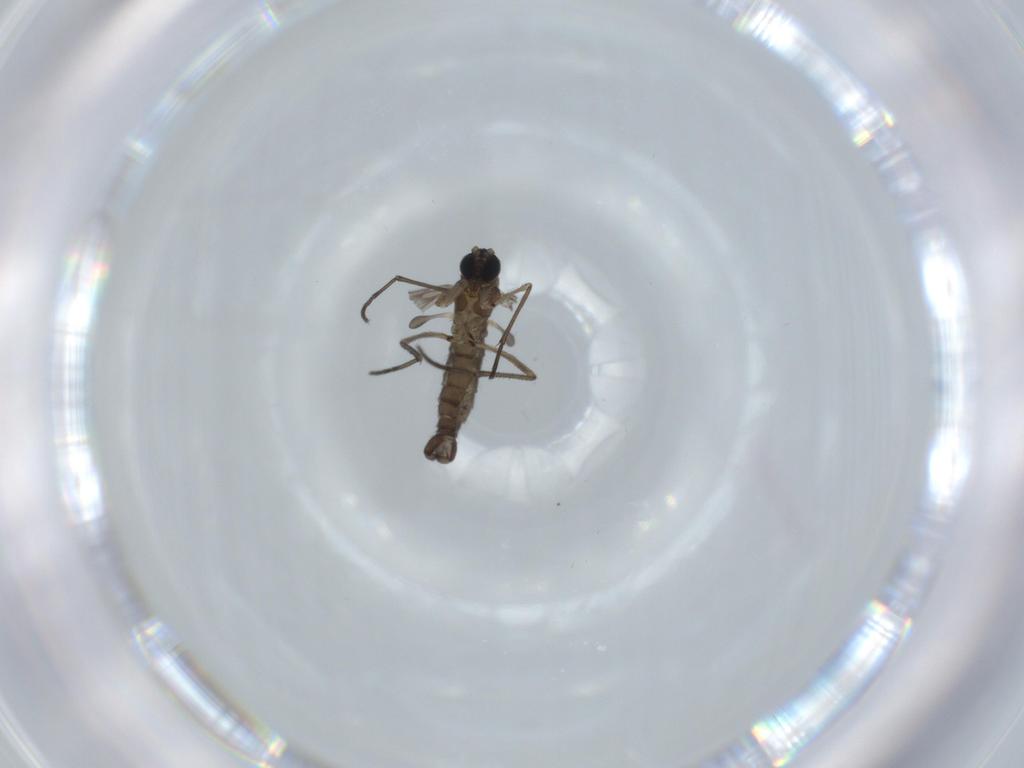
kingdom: Animalia
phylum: Arthropoda
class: Insecta
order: Diptera
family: Sciaridae
